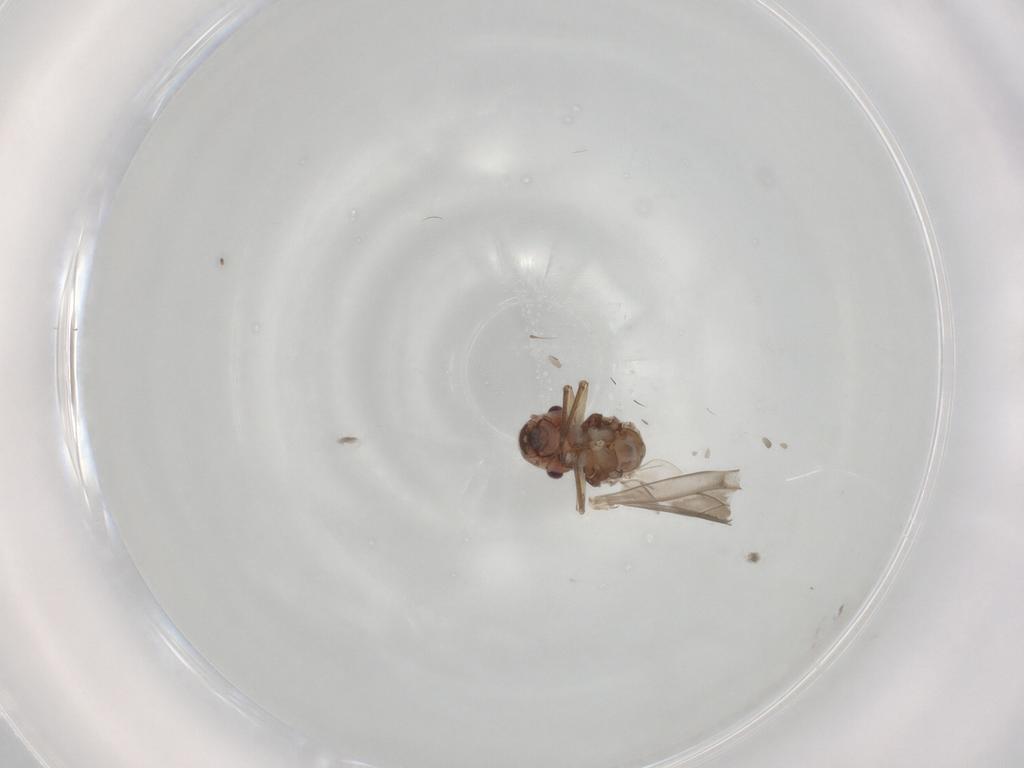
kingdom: Animalia
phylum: Arthropoda
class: Insecta
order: Psocodea
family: Peripsocidae
